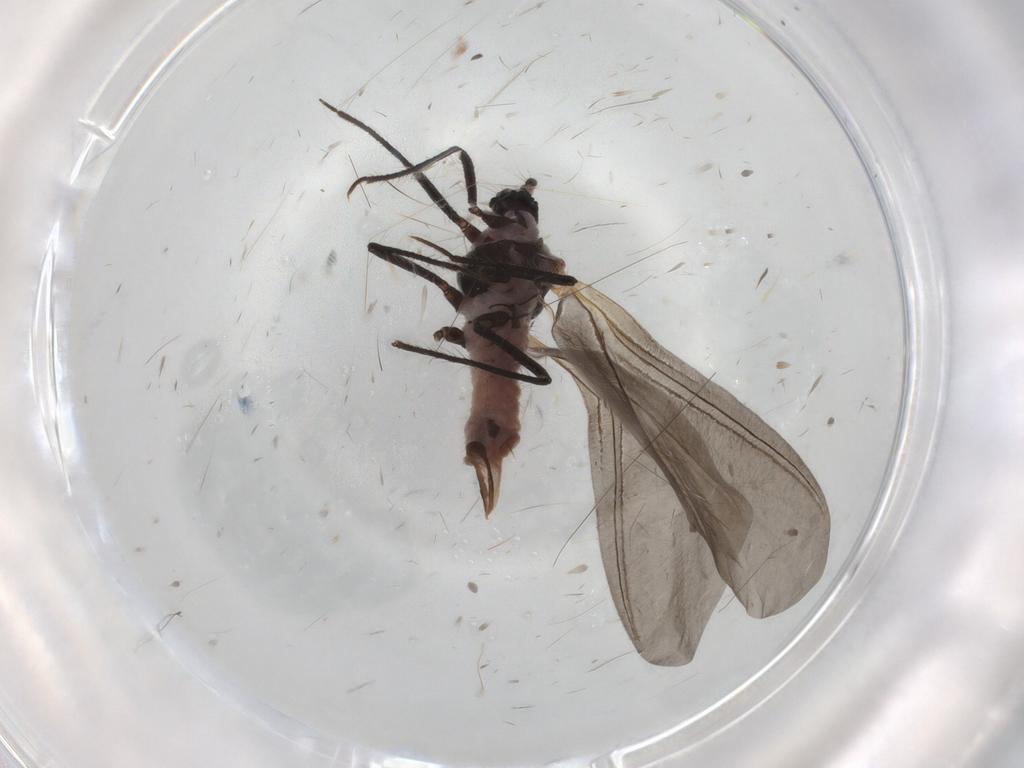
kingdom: Animalia
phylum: Arthropoda
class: Insecta
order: Hemiptera
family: Putoidae
